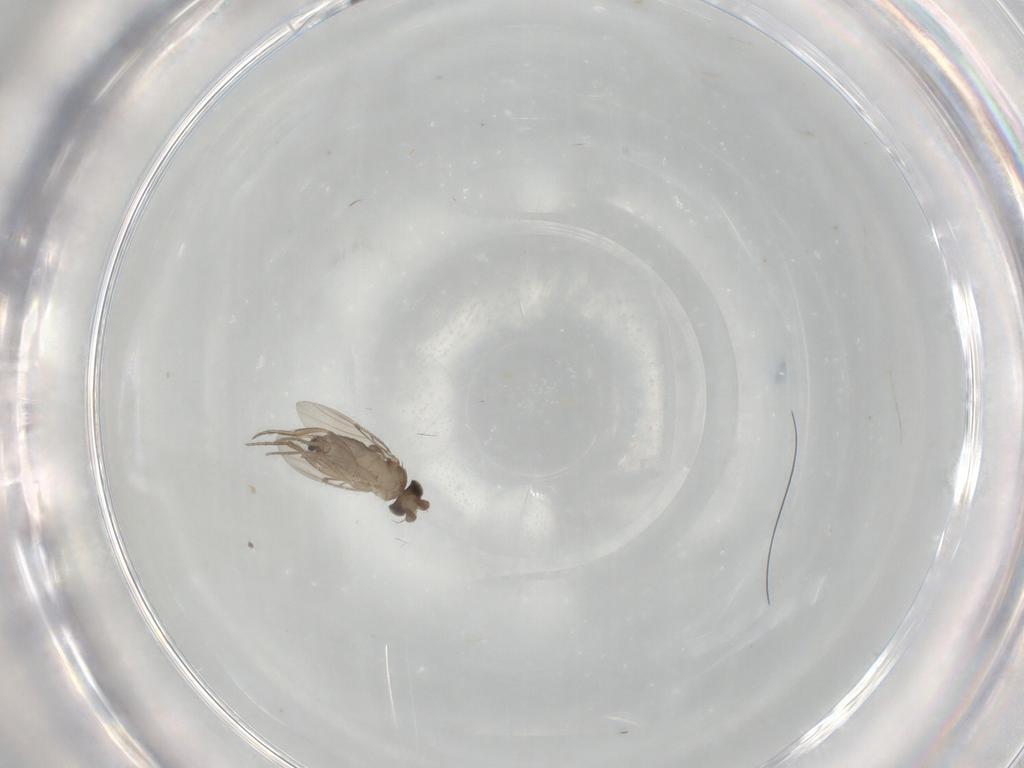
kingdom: Animalia
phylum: Arthropoda
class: Insecta
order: Diptera
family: Phoridae
